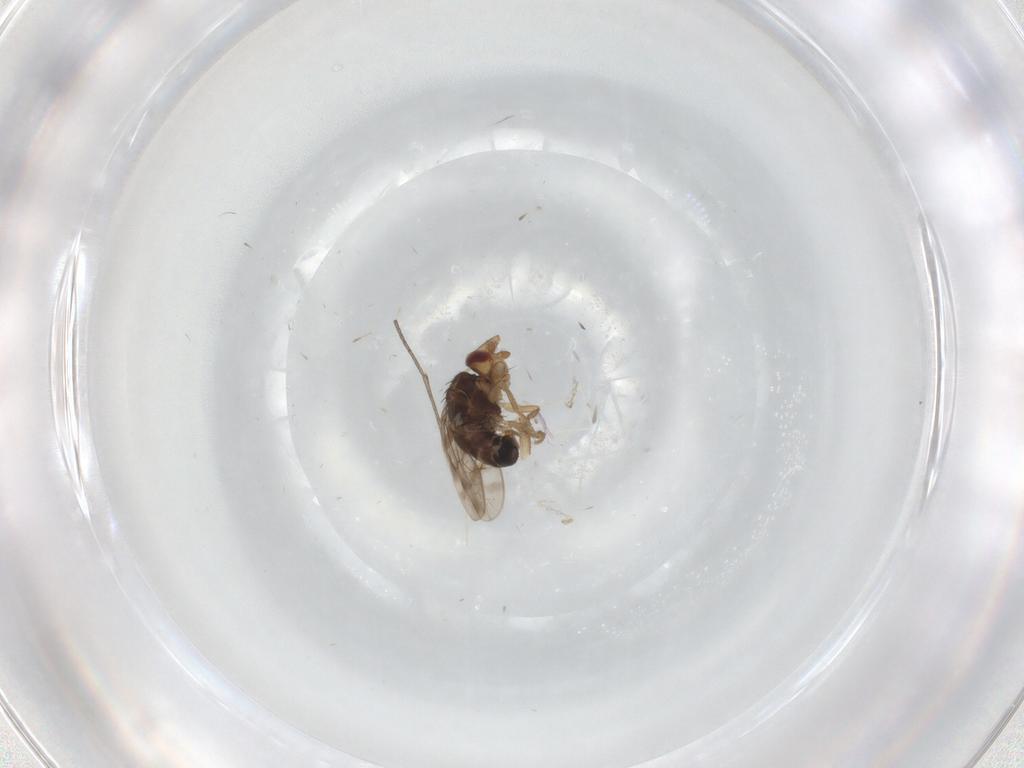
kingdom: Animalia
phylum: Arthropoda
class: Insecta
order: Diptera
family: Sphaeroceridae
